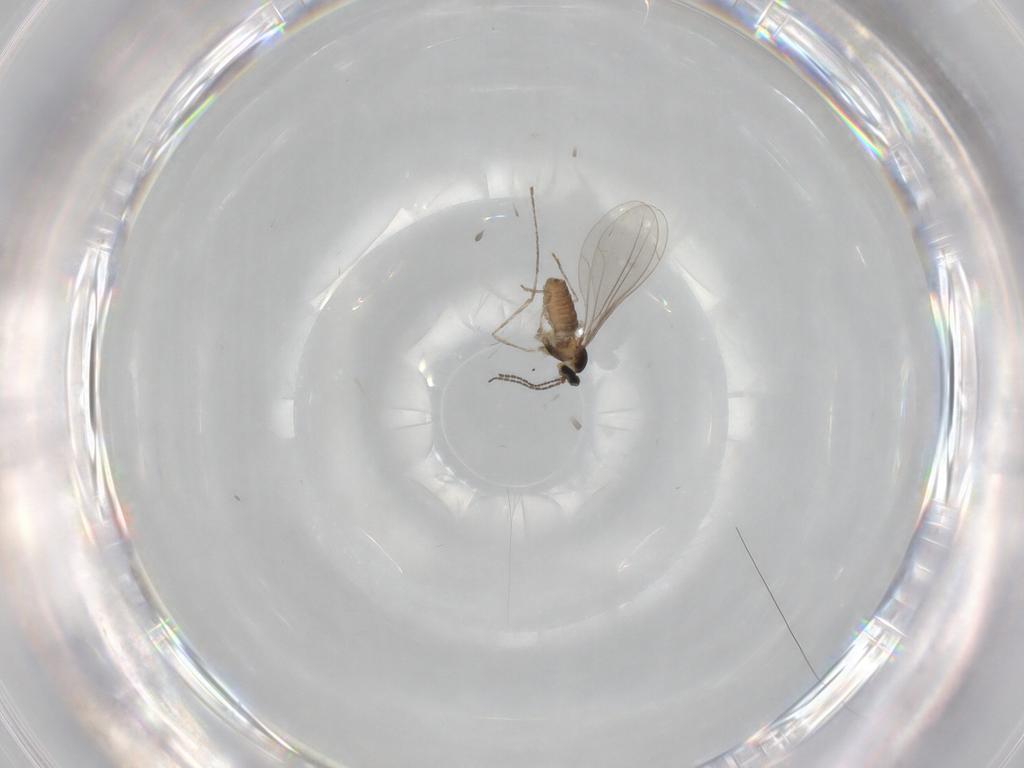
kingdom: Animalia
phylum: Arthropoda
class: Insecta
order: Diptera
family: Cecidomyiidae
